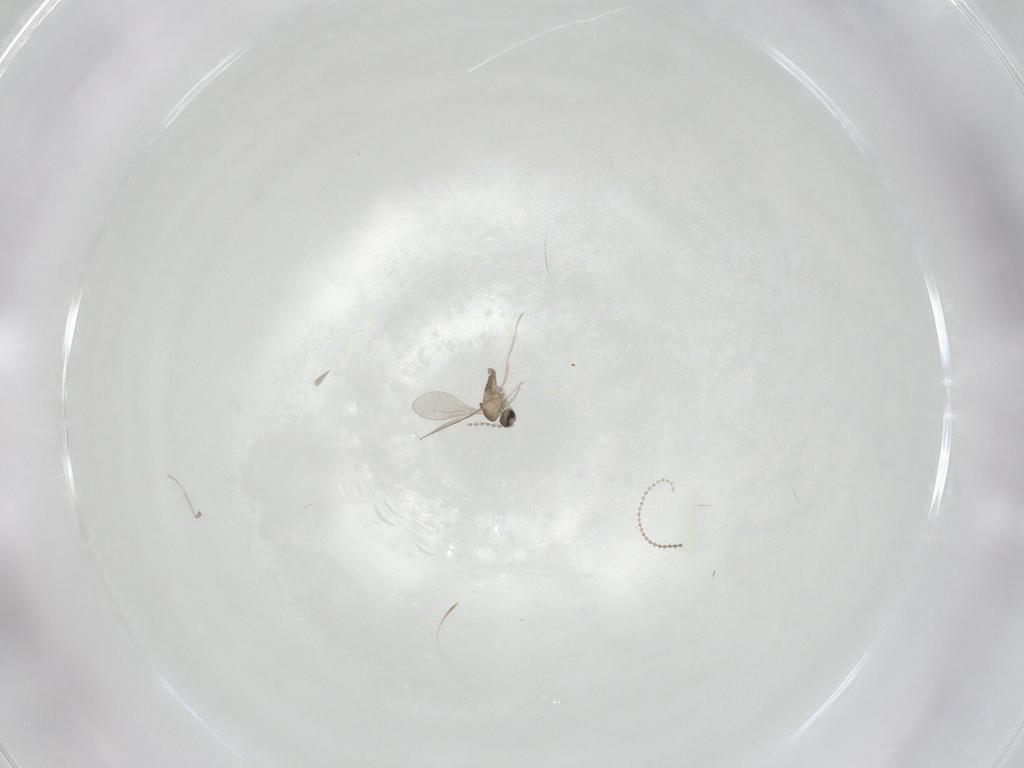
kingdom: Animalia
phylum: Arthropoda
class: Insecta
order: Diptera
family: Cecidomyiidae
